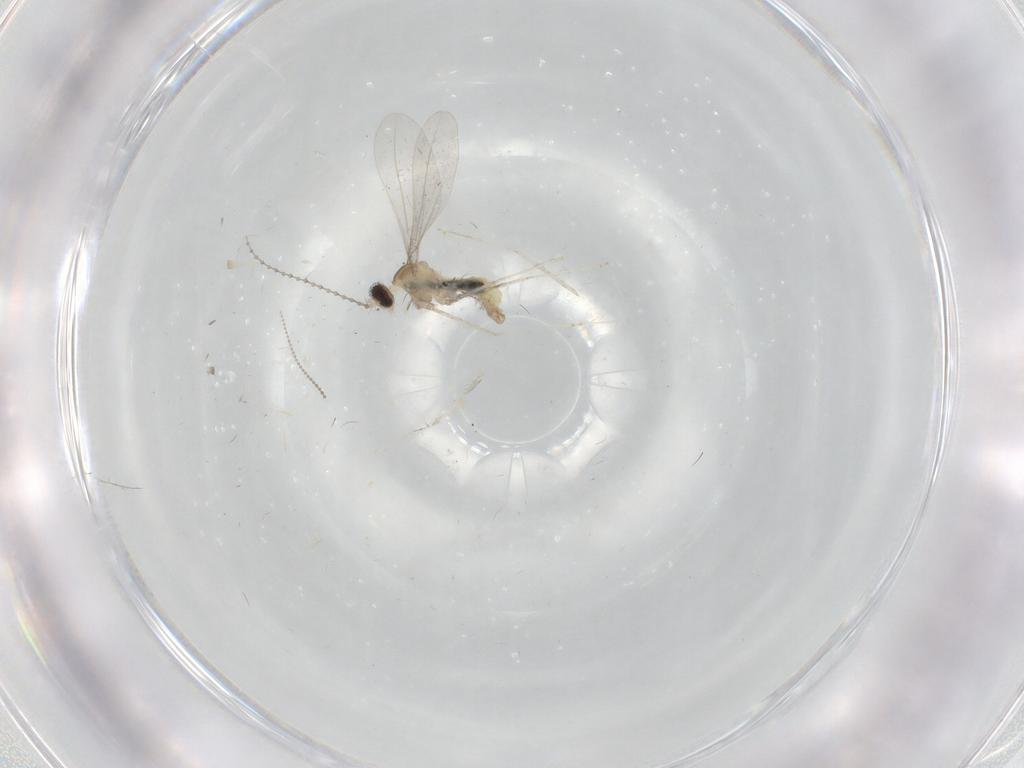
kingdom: Animalia
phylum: Arthropoda
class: Insecta
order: Diptera
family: Cecidomyiidae
